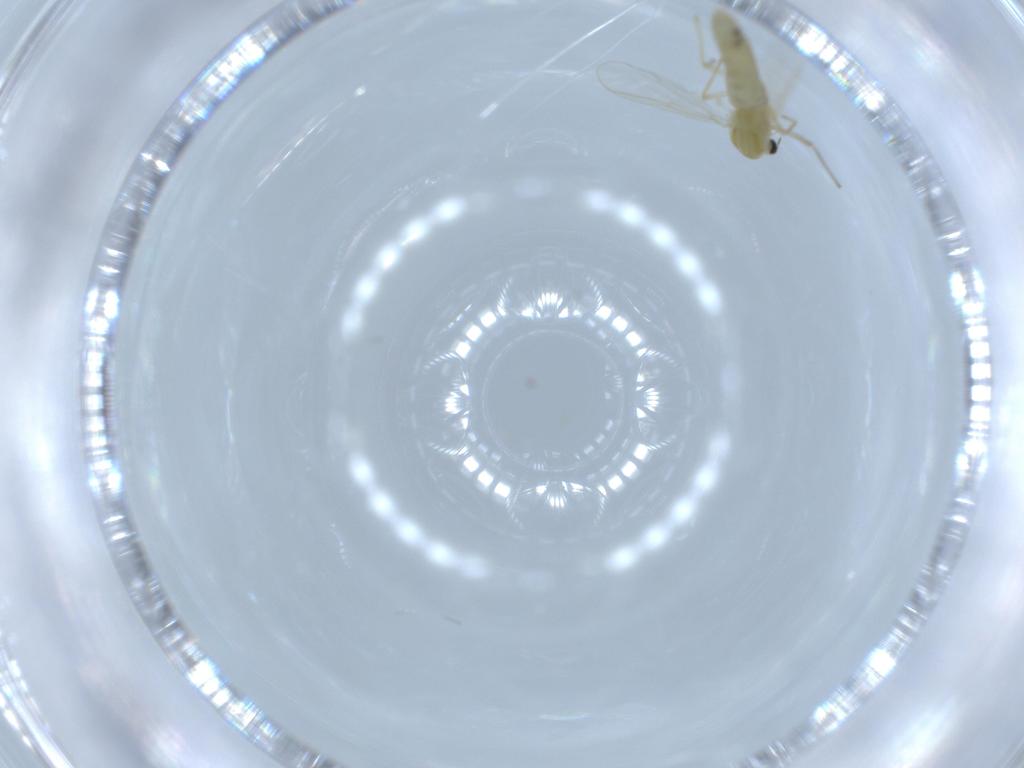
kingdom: Animalia
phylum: Arthropoda
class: Insecta
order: Diptera
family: Chironomidae
